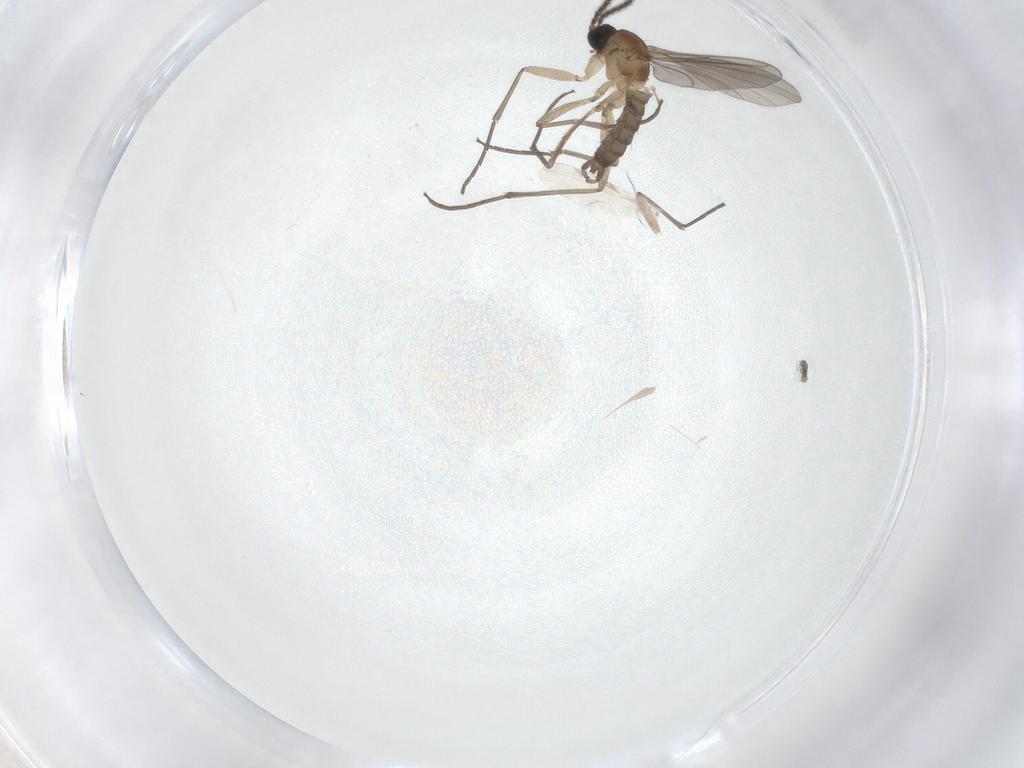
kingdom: Animalia
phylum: Arthropoda
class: Insecta
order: Diptera
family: Sciaridae
